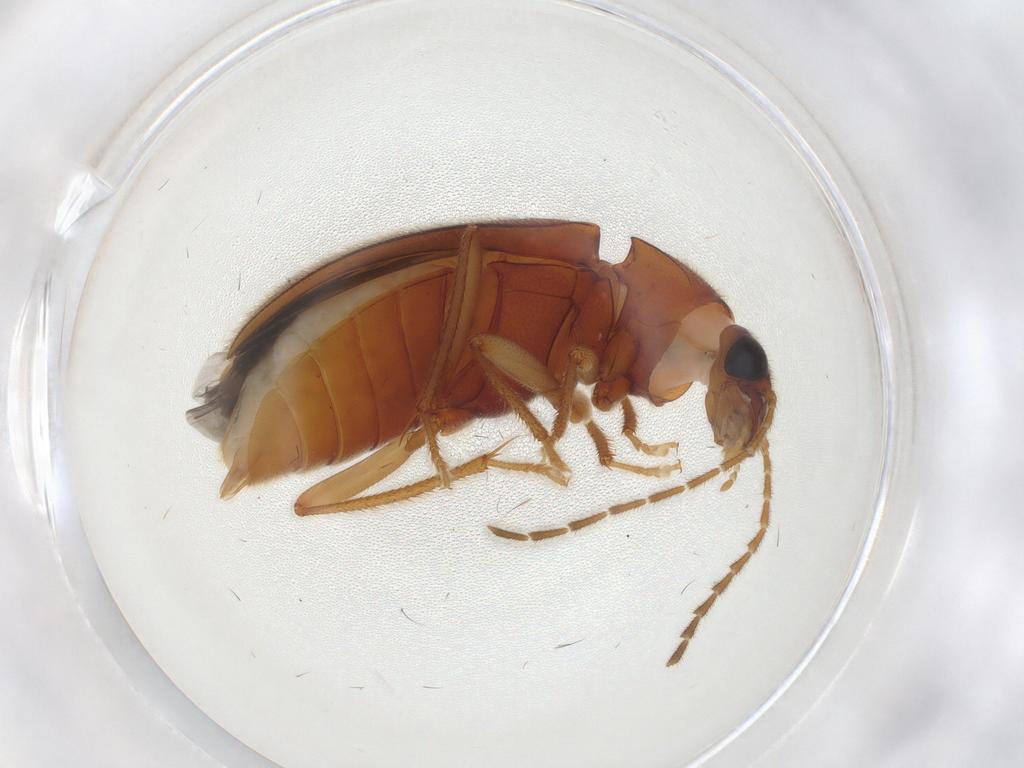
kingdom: Animalia
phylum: Arthropoda
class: Insecta
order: Coleoptera
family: Ptilodactylidae
